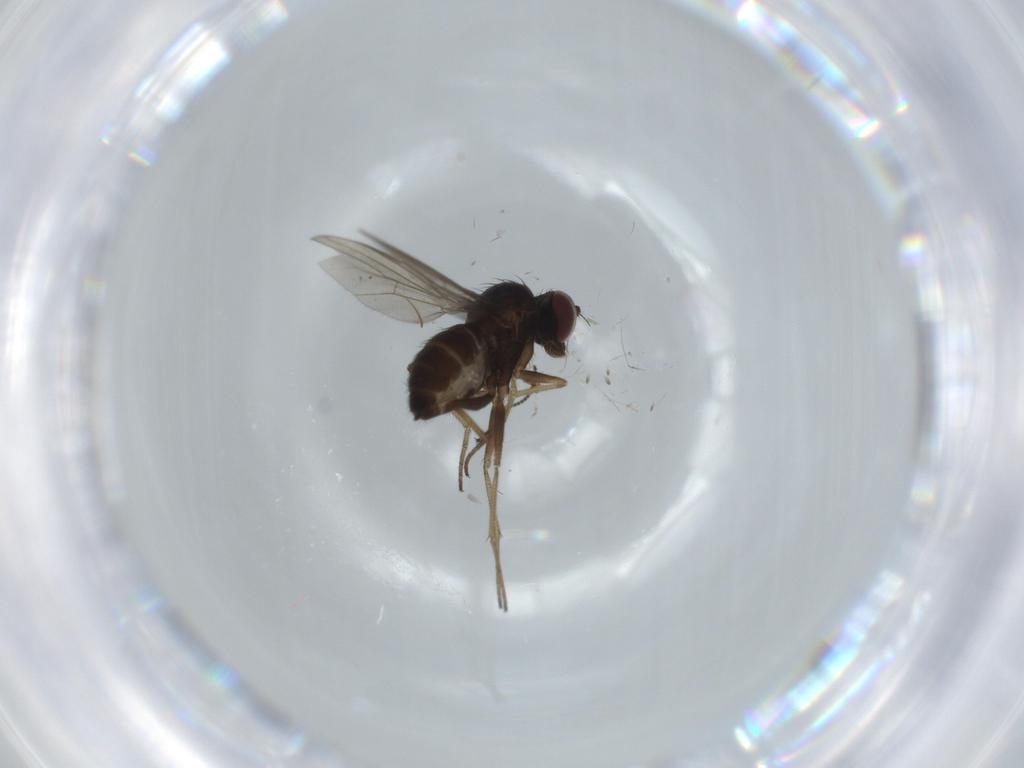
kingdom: Animalia
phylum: Arthropoda
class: Insecta
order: Diptera
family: Dolichopodidae
